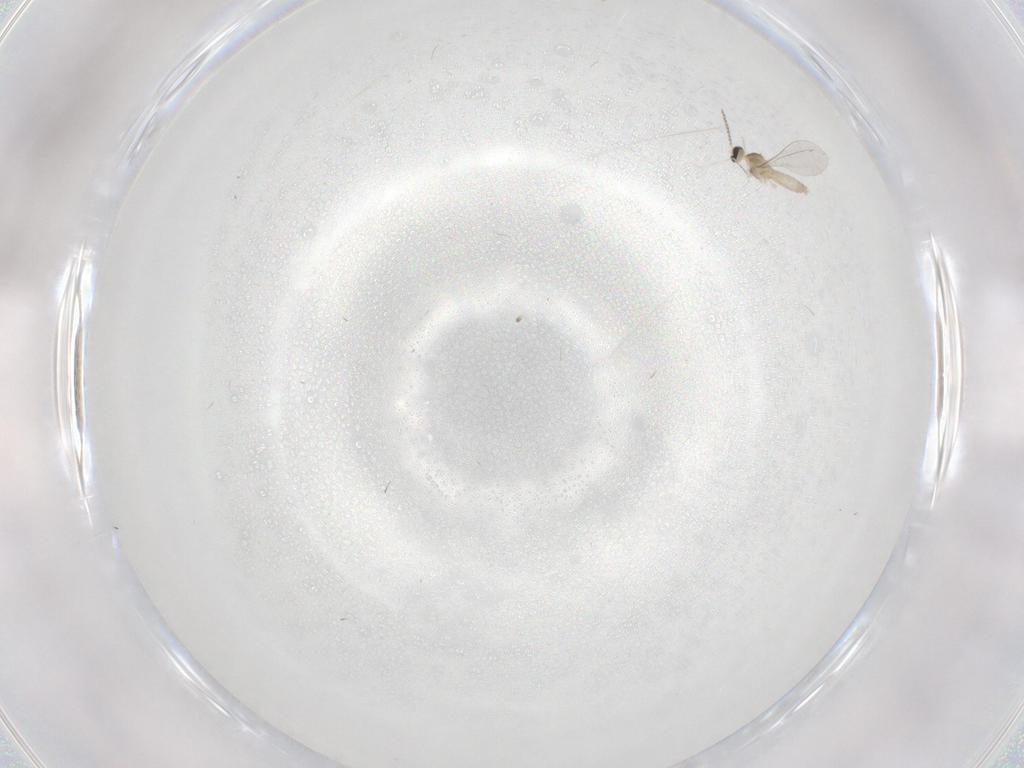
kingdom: Animalia
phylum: Arthropoda
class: Insecta
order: Diptera
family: Cecidomyiidae
